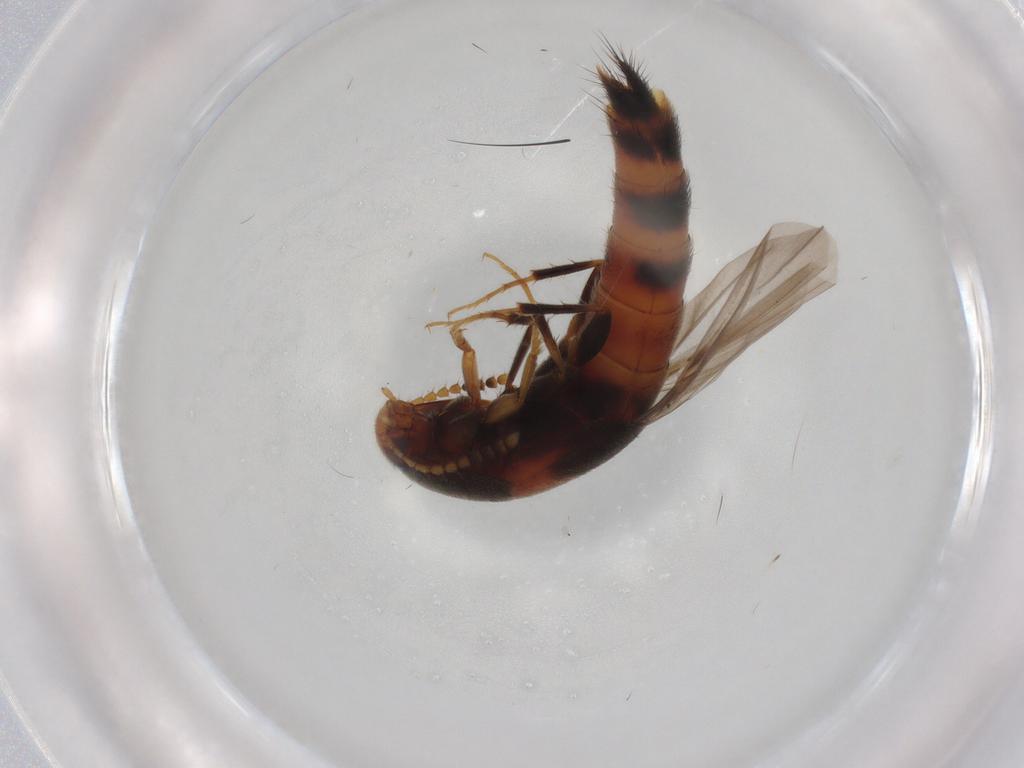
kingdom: Animalia
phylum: Arthropoda
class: Insecta
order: Coleoptera
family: Staphylinidae
